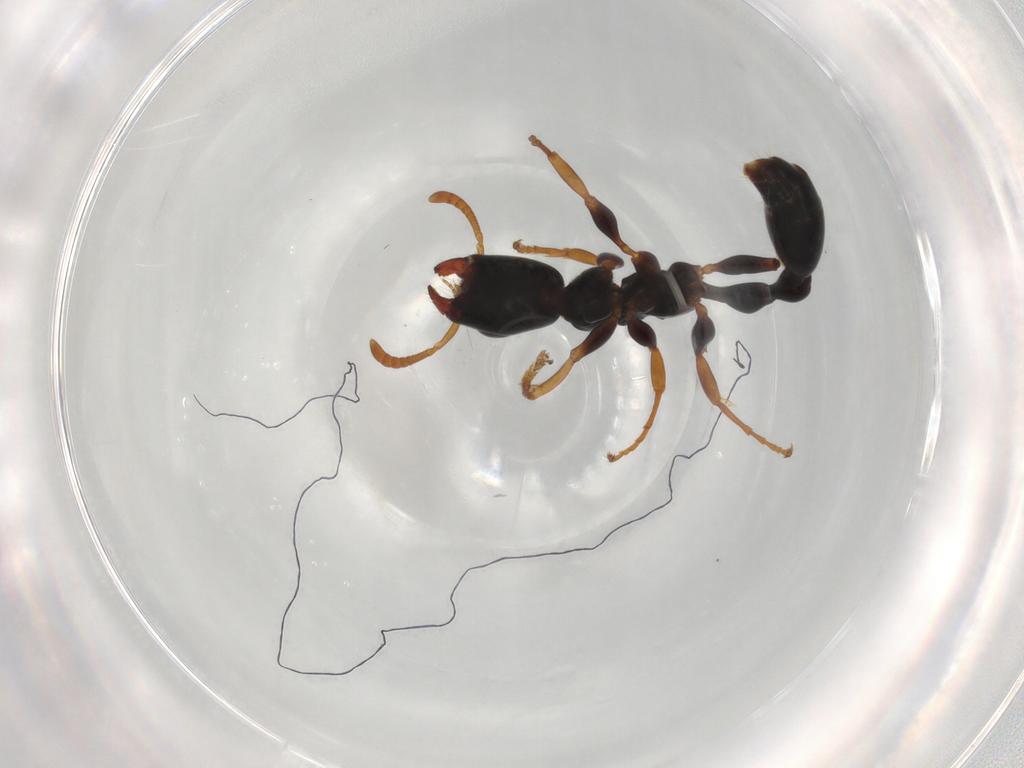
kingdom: Animalia
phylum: Arthropoda
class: Insecta
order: Hymenoptera
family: Formicidae
